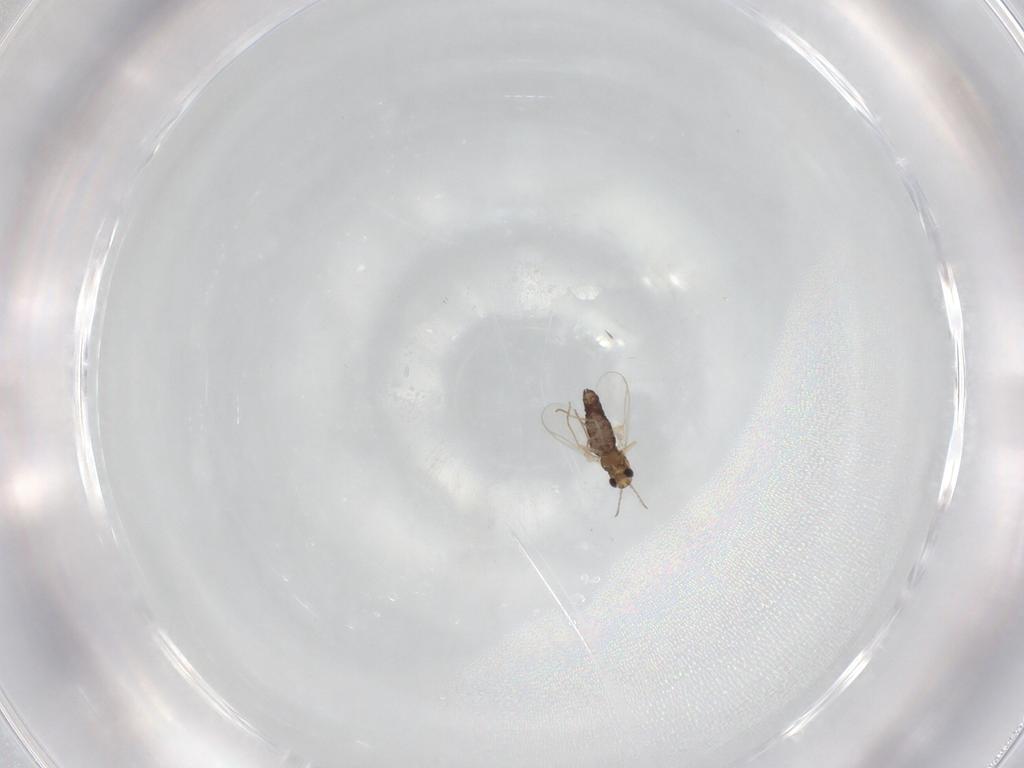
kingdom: Animalia
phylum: Arthropoda
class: Insecta
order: Diptera
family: Chironomidae
